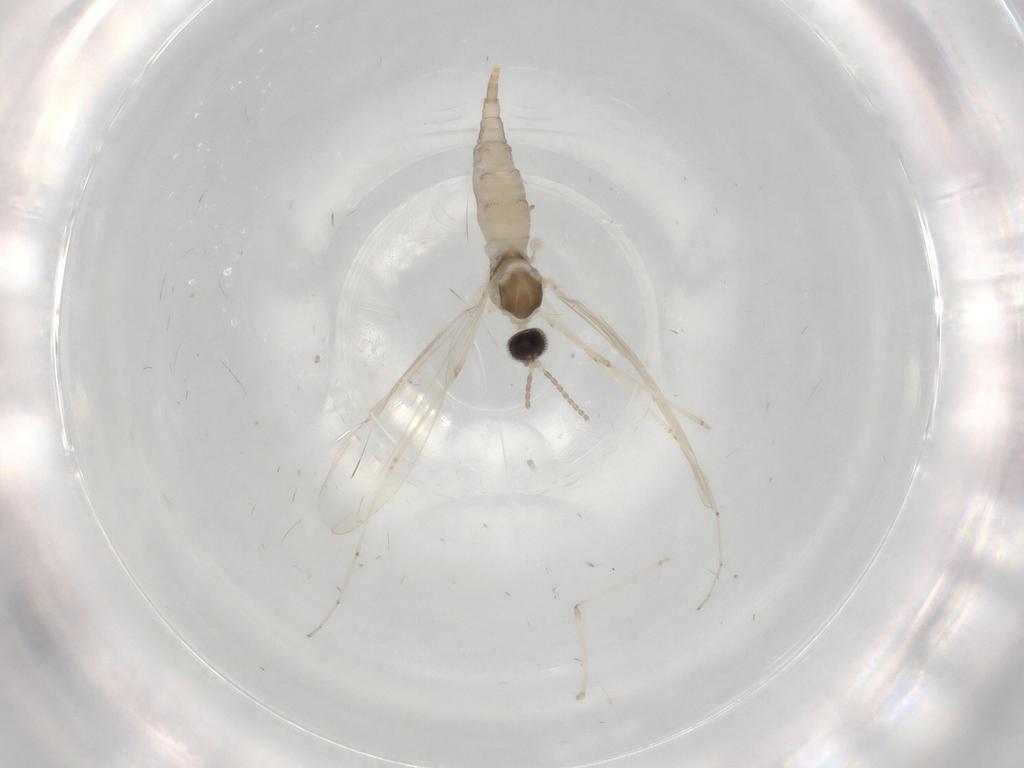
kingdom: Animalia
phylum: Arthropoda
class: Insecta
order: Diptera
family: Cecidomyiidae
